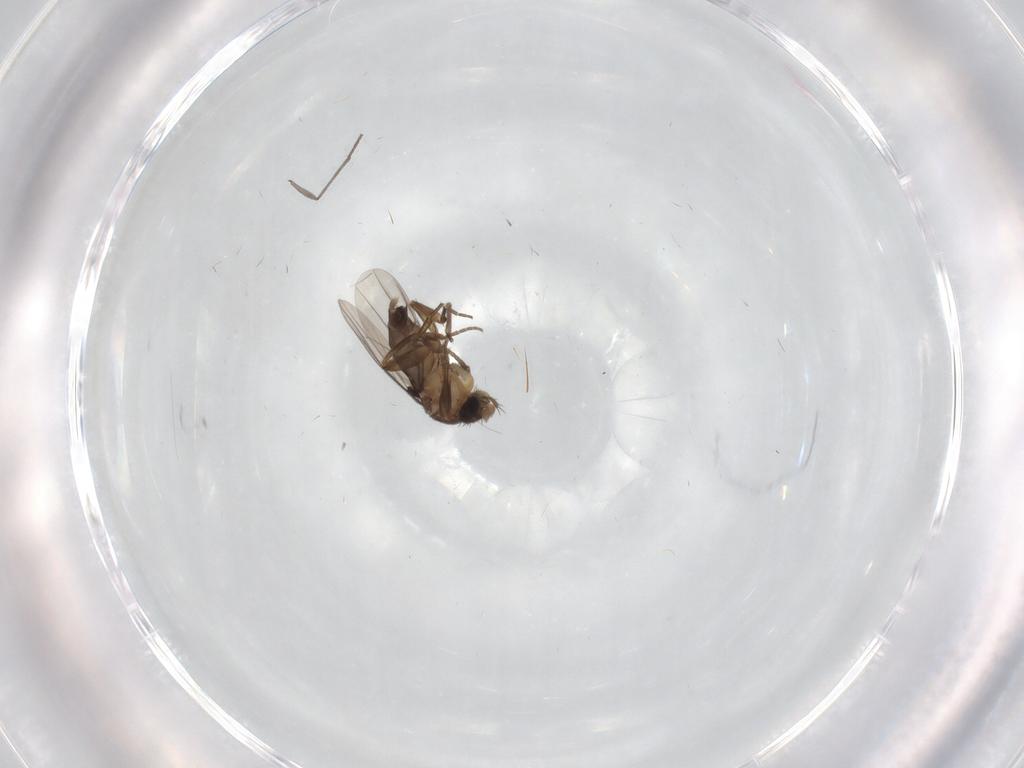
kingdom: Animalia
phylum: Arthropoda
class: Insecta
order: Diptera
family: Phoridae
